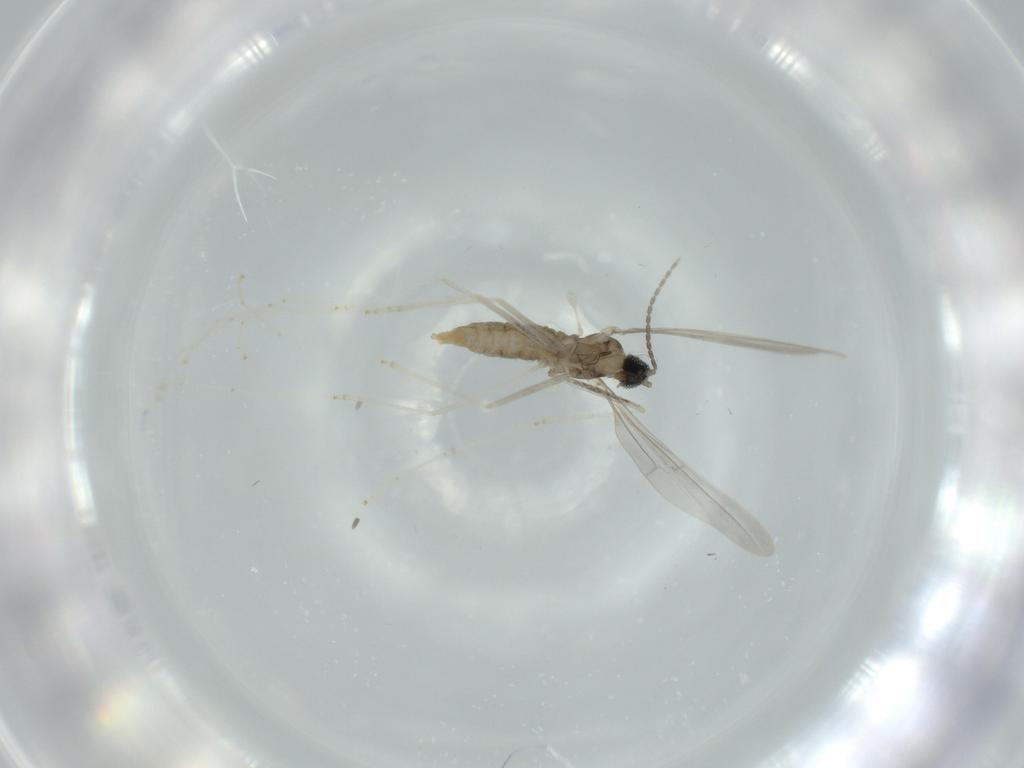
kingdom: Animalia
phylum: Arthropoda
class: Insecta
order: Diptera
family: Cecidomyiidae
